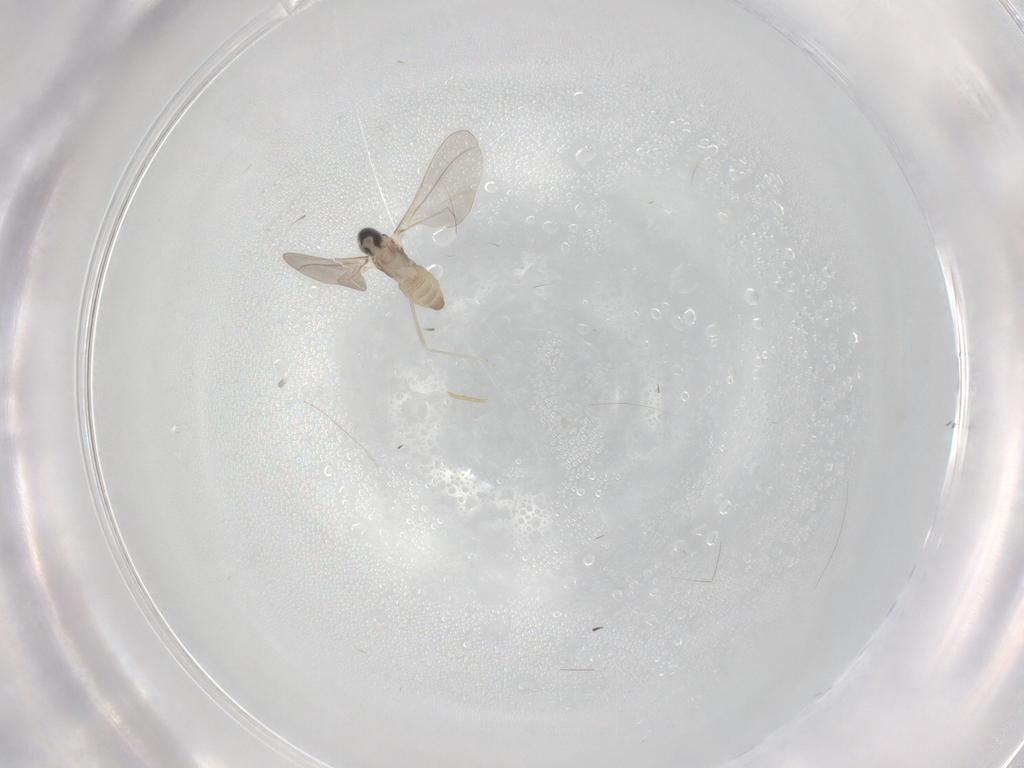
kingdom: Animalia
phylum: Arthropoda
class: Insecta
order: Diptera
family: Cecidomyiidae
